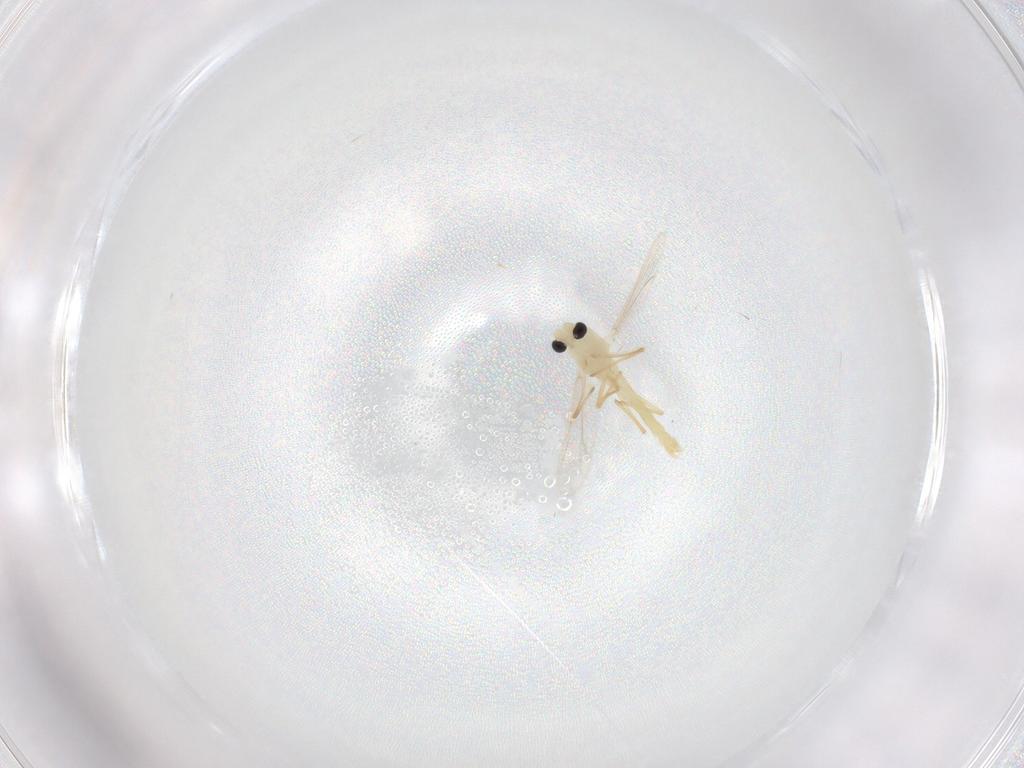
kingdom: Animalia
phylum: Arthropoda
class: Insecta
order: Diptera
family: Chironomidae
